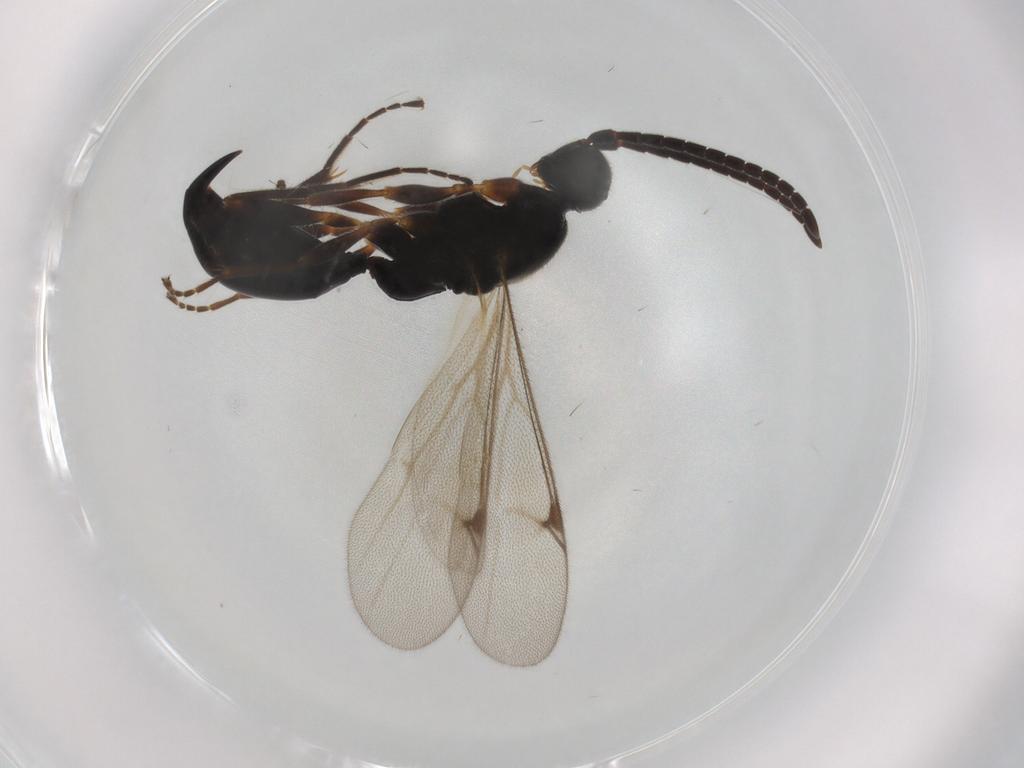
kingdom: Animalia
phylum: Arthropoda
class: Insecta
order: Hymenoptera
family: Proctotrupidae
